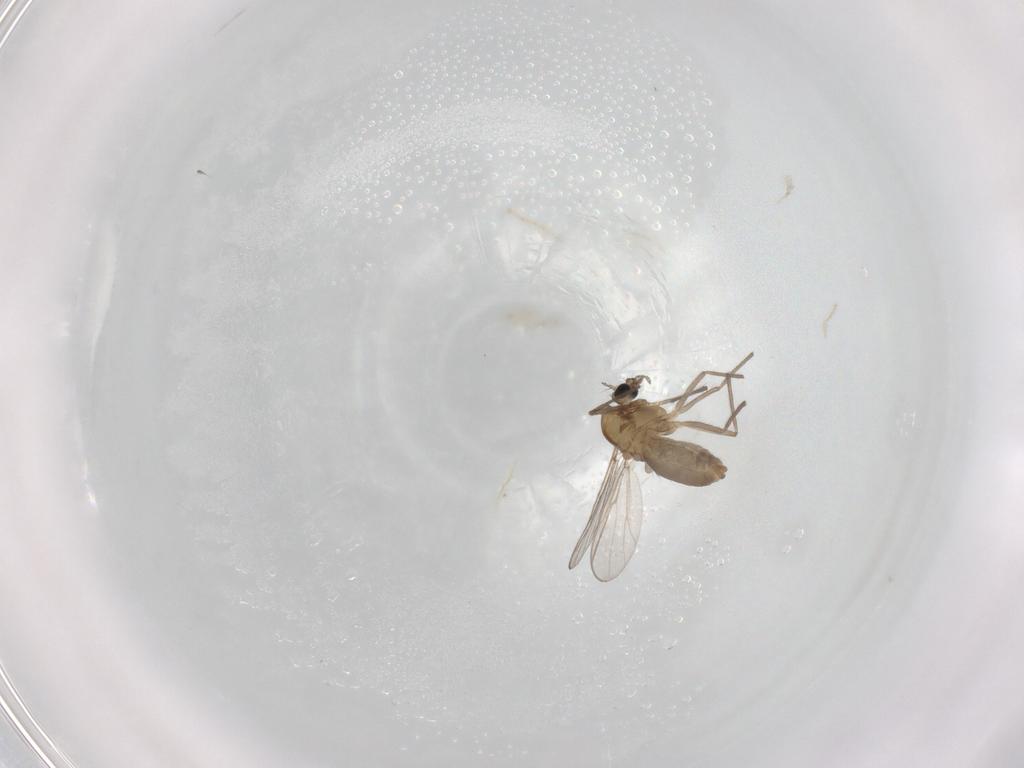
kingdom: Animalia
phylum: Arthropoda
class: Insecta
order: Diptera
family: Chironomidae
